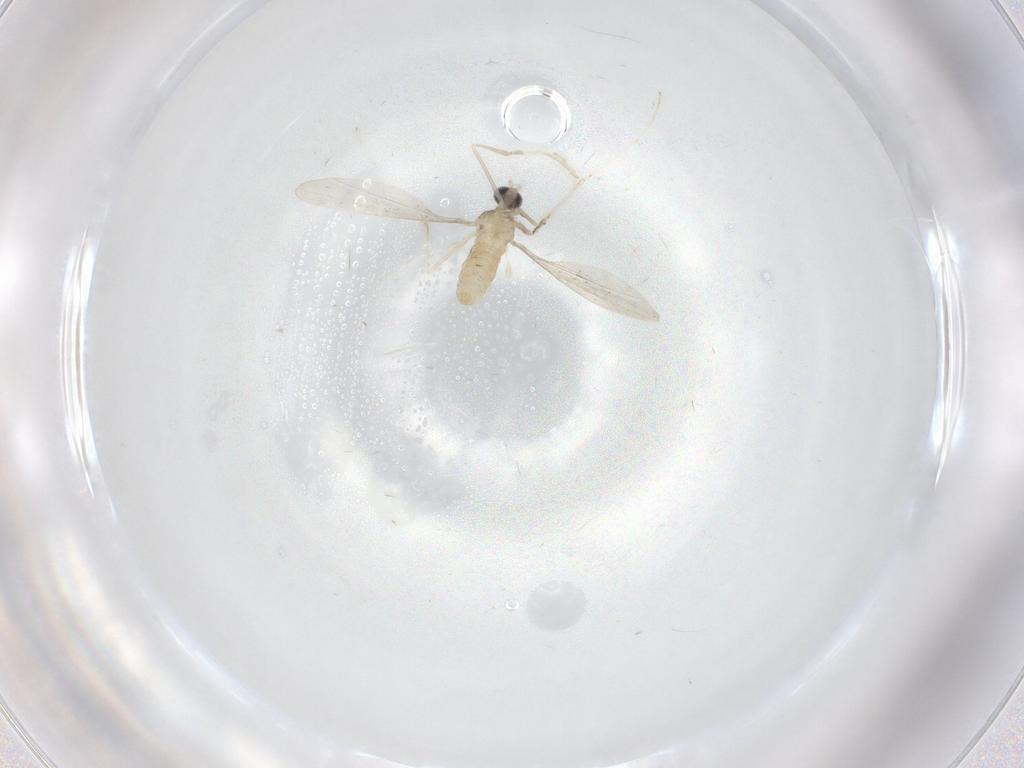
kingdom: Animalia
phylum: Arthropoda
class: Insecta
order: Diptera
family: Cecidomyiidae
